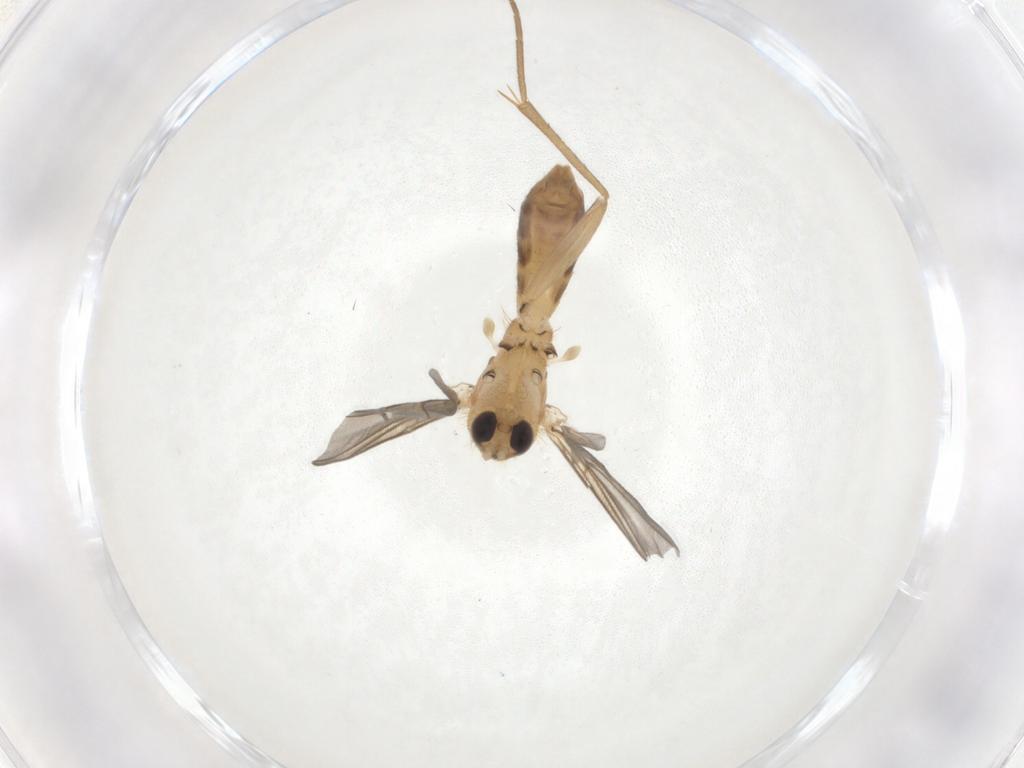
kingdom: Animalia
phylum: Arthropoda
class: Insecta
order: Diptera
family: Mycetophilidae
